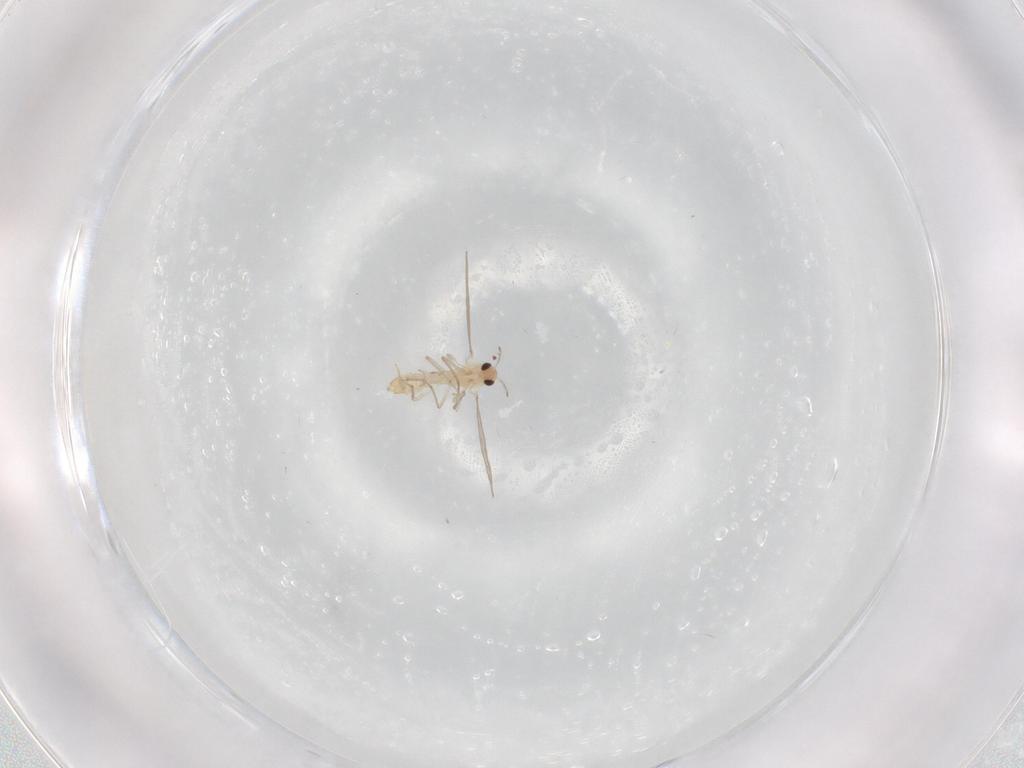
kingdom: Animalia
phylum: Arthropoda
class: Insecta
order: Diptera
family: Chironomidae
